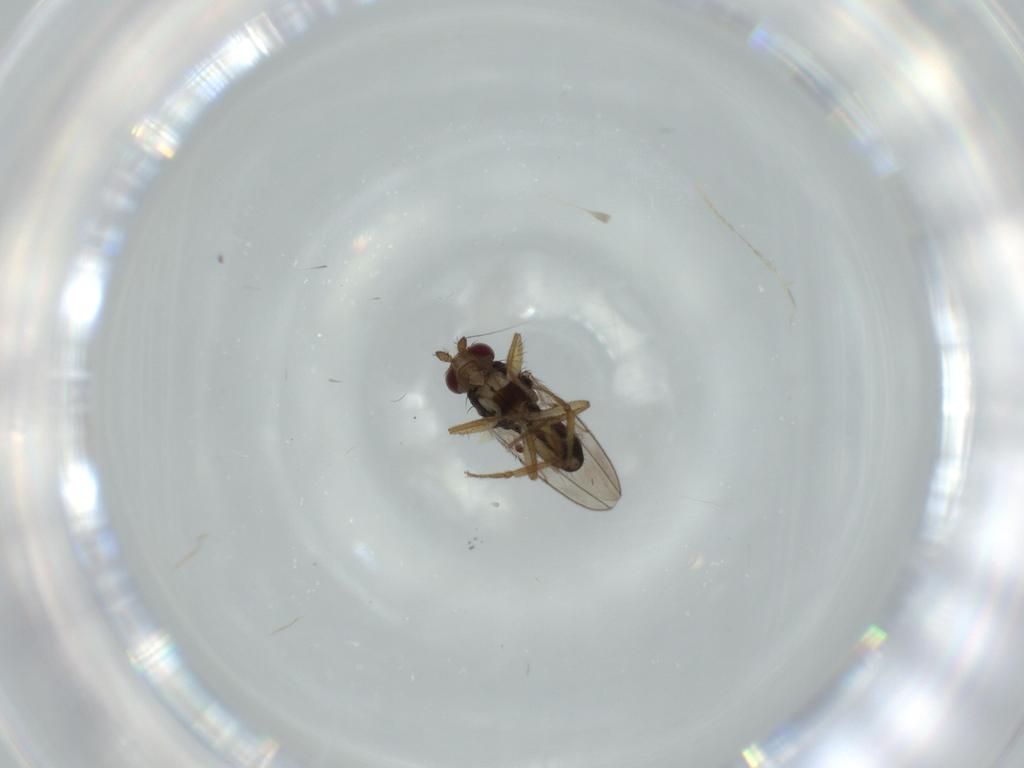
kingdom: Animalia
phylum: Arthropoda
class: Insecta
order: Diptera
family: Sphaeroceridae
